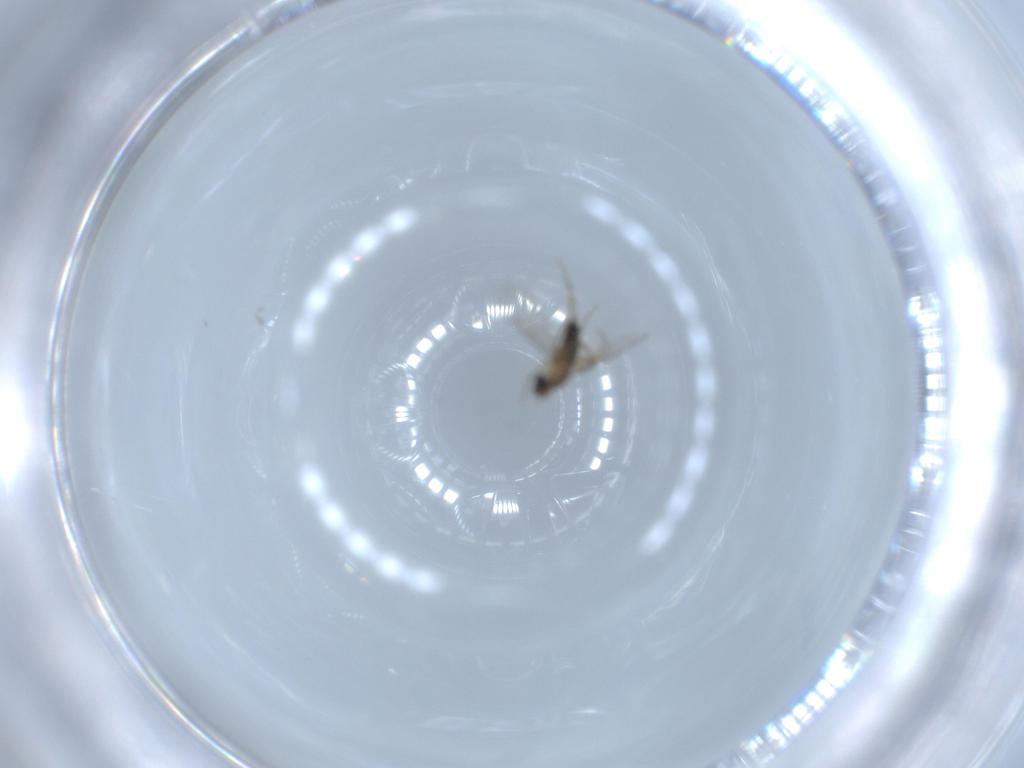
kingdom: Animalia
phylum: Arthropoda
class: Insecta
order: Diptera
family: Phoridae
